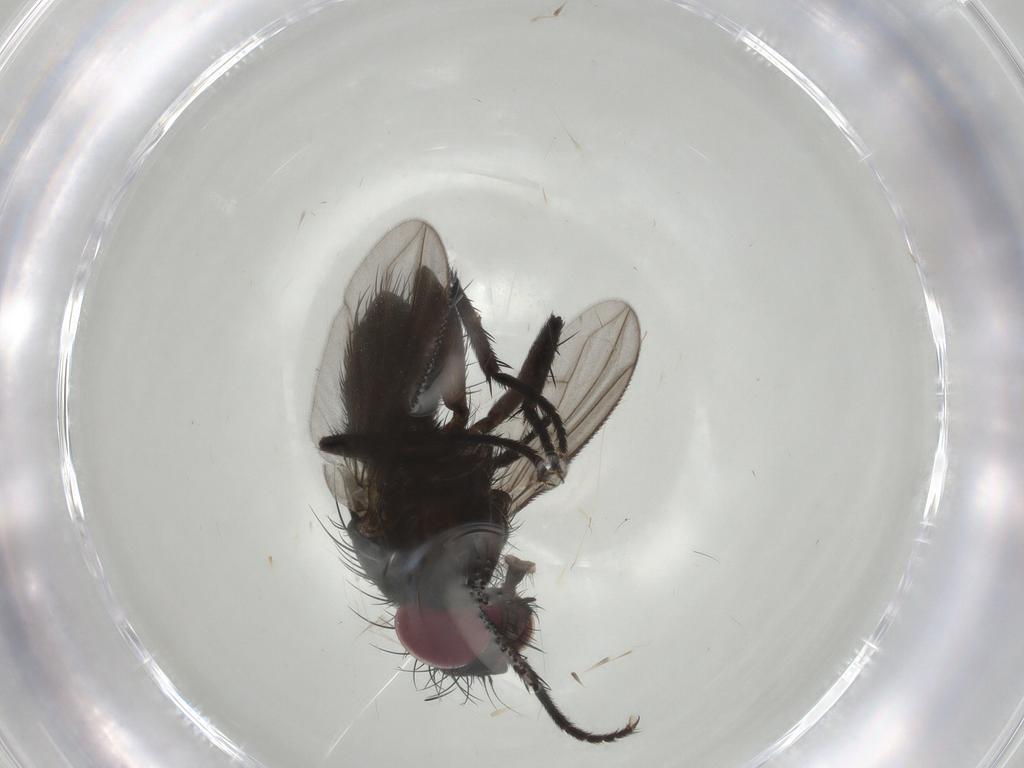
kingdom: Animalia
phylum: Arthropoda
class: Insecta
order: Diptera
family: Calliphoridae
